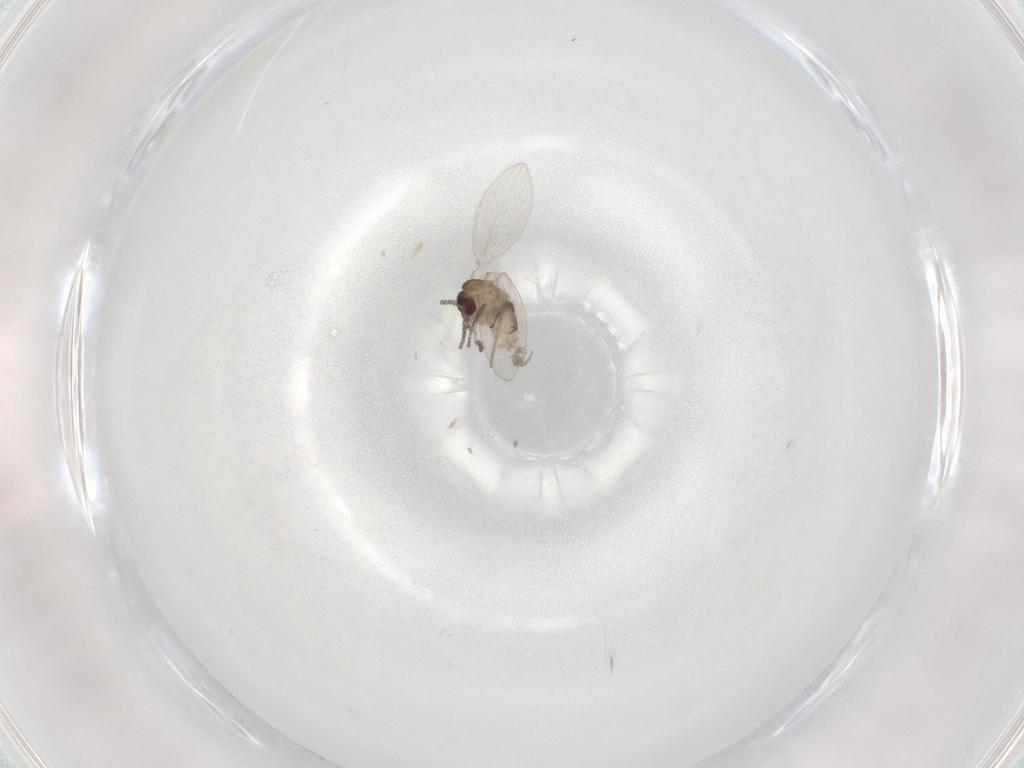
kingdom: Animalia
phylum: Arthropoda
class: Insecta
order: Diptera
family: Psychodidae
